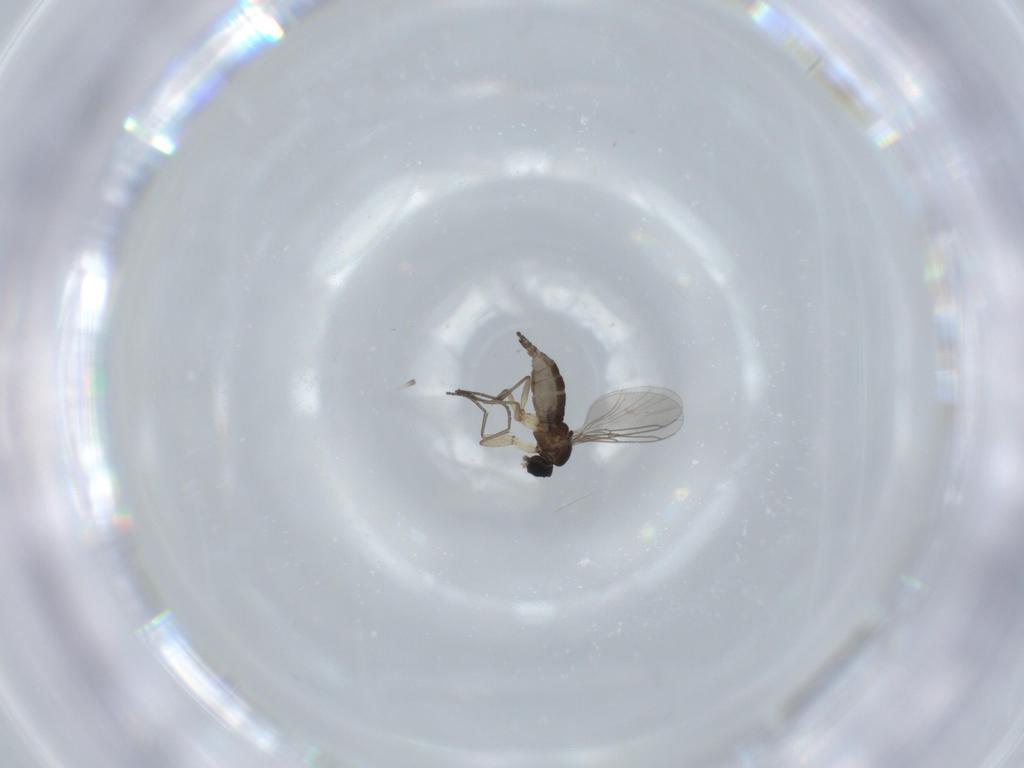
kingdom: Animalia
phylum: Arthropoda
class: Insecta
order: Diptera
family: Sciaridae
